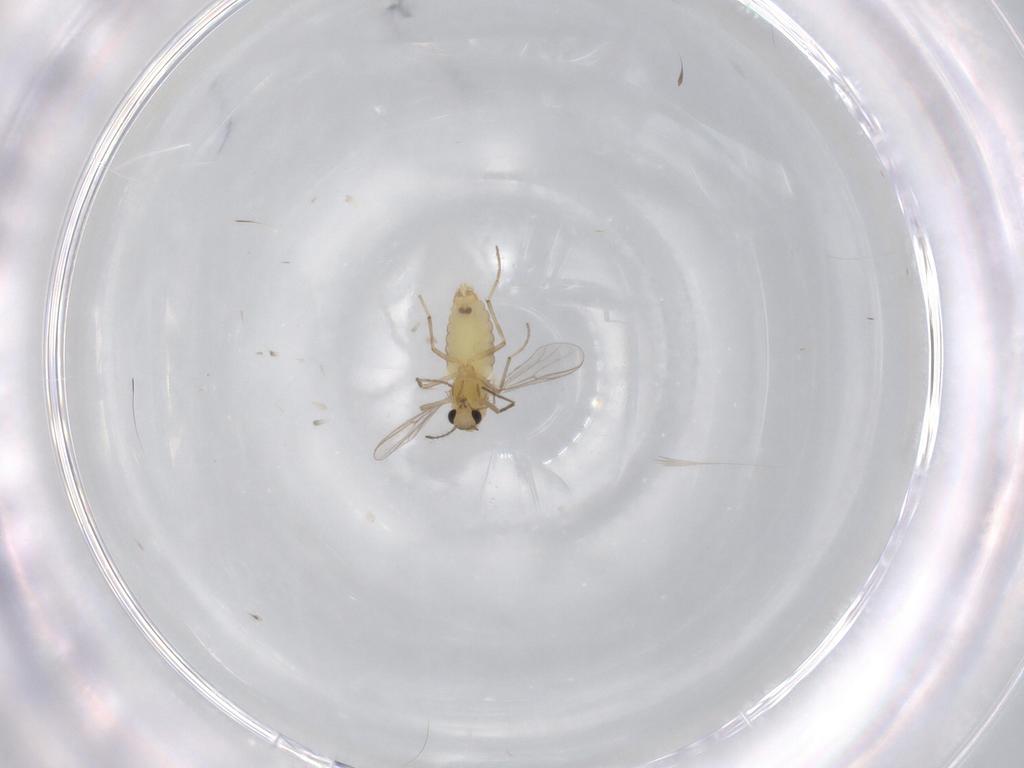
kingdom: Animalia
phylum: Arthropoda
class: Insecta
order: Diptera
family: Chironomidae
